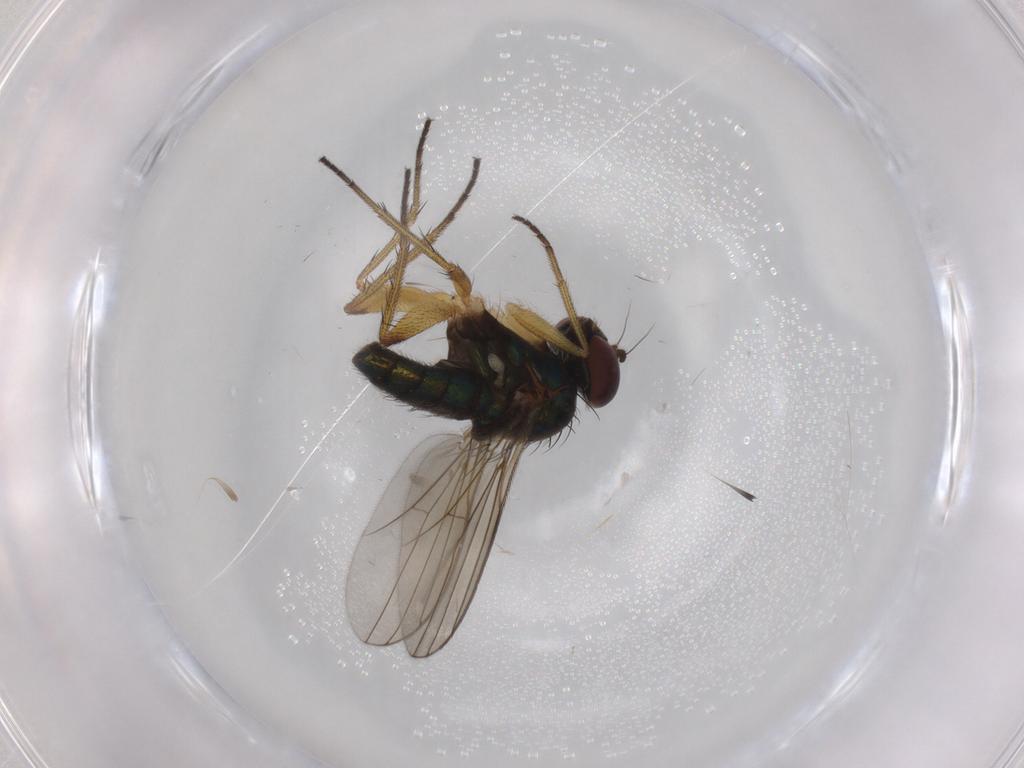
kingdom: Animalia
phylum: Arthropoda
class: Insecta
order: Diptera
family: Dolichopodidae
